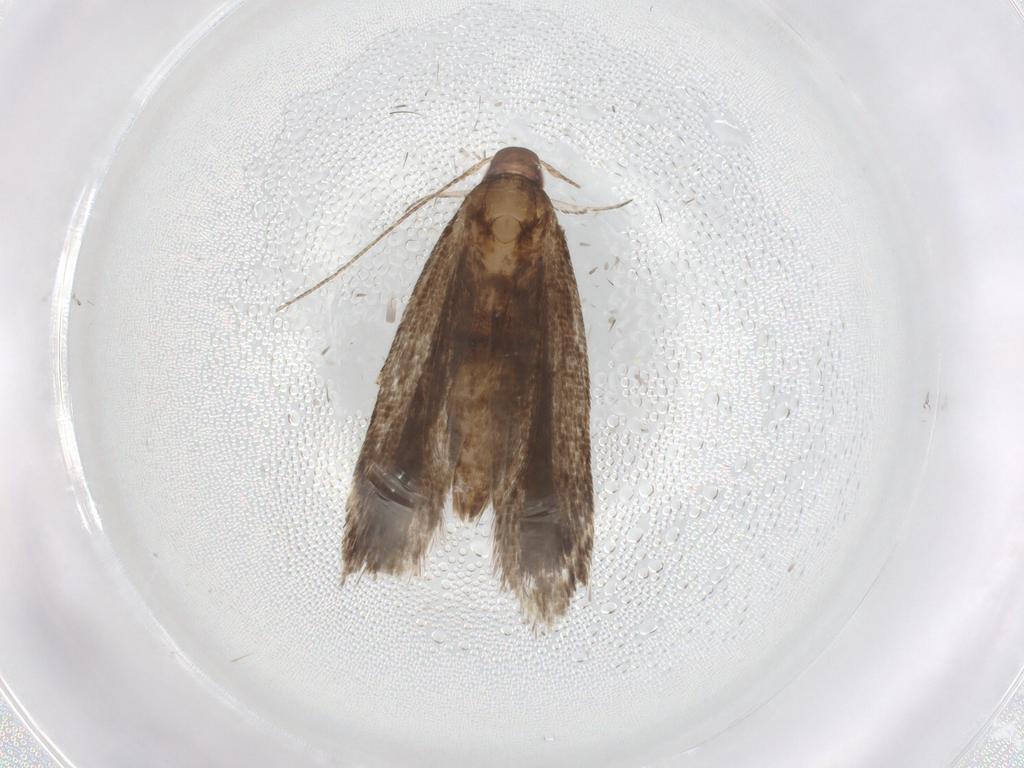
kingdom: Animalia
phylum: Arthropoda
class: Insecta
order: Lepidoptera
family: Gelechiidae
